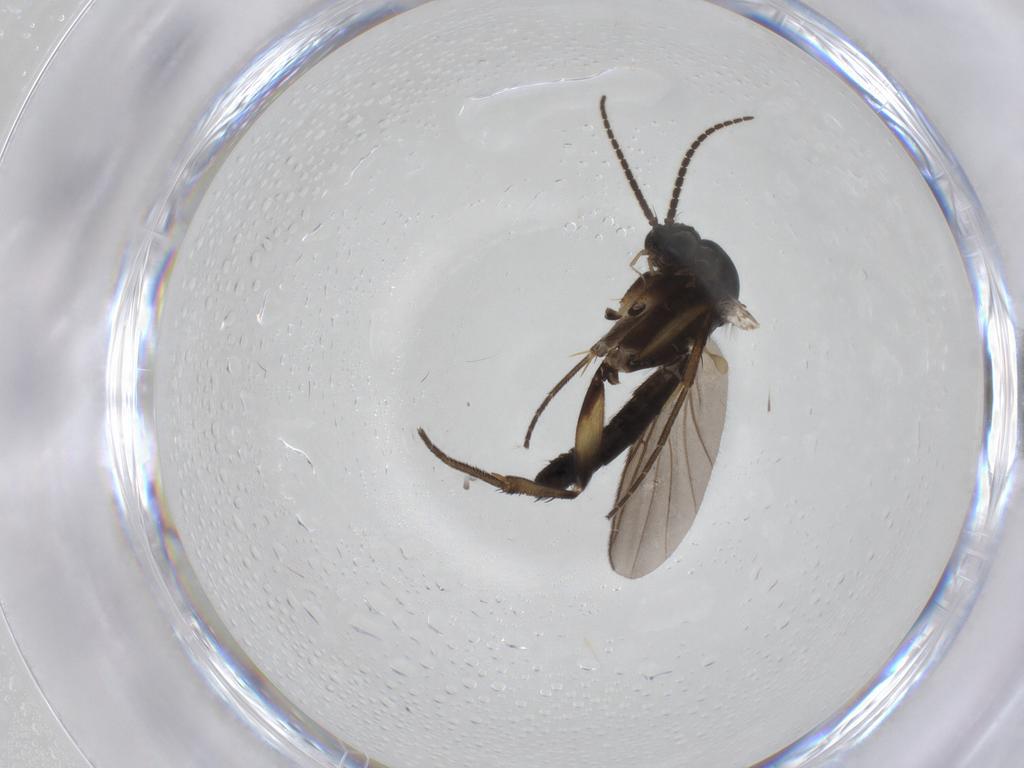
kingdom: Animalia
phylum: Arthropoda
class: Insecta
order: Diptera
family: Mycetophilidae
